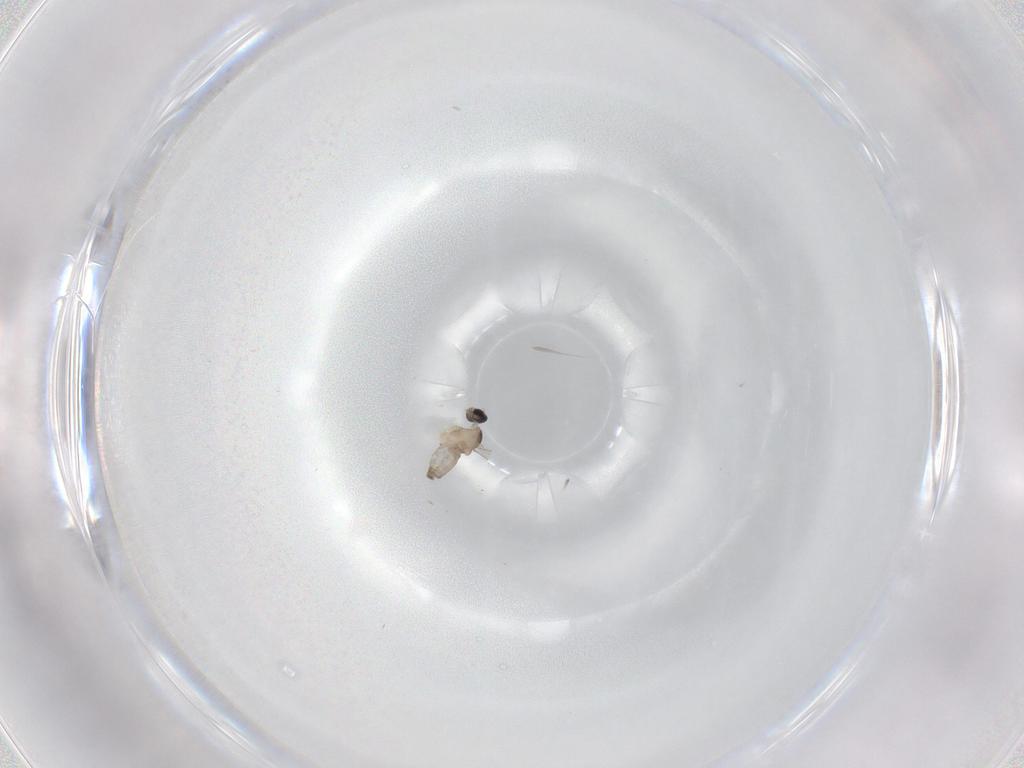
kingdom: Animalia
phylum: Arthropoda
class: Insecta
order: Diptera
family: Cecidomyiidae
